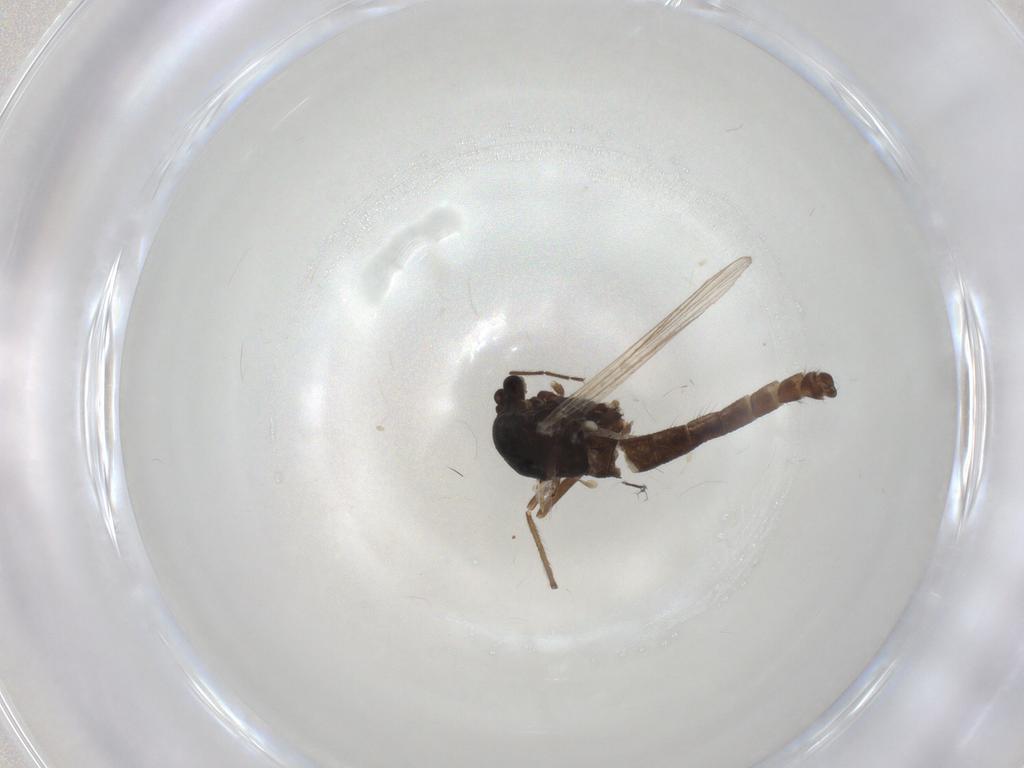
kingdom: Animalia
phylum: Arthropoda
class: Insecta
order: Diptera
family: Chironomidae
